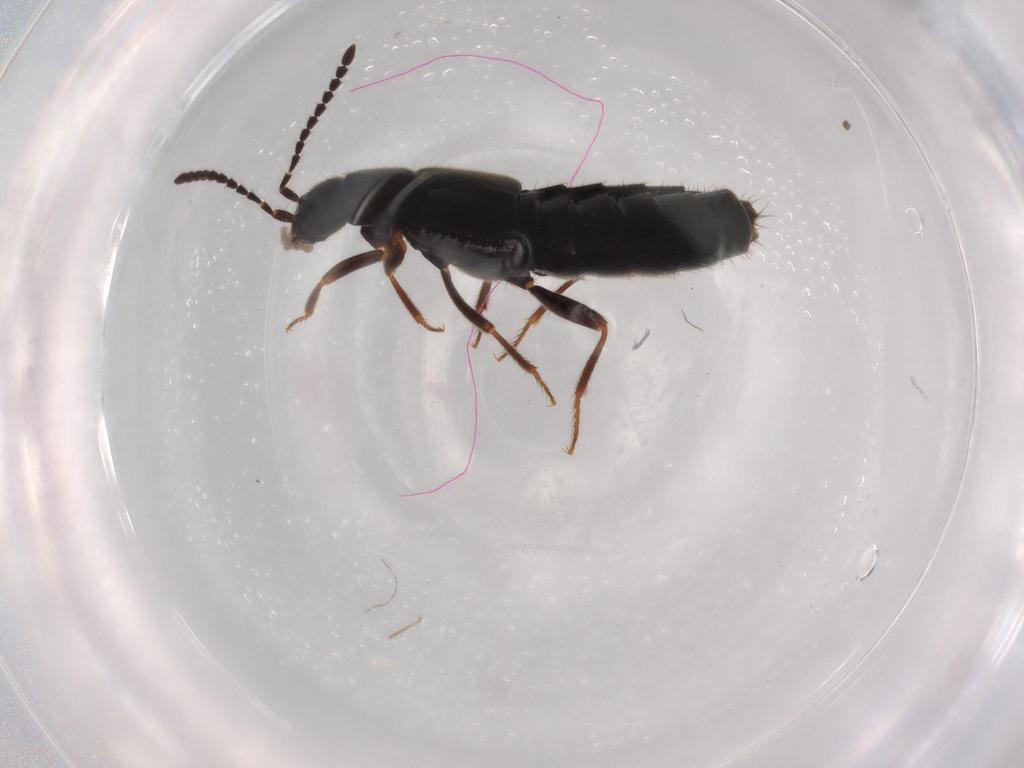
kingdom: Animalia
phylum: Arthropoda
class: Insecta
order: Coleoptera
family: Staphylinidae
